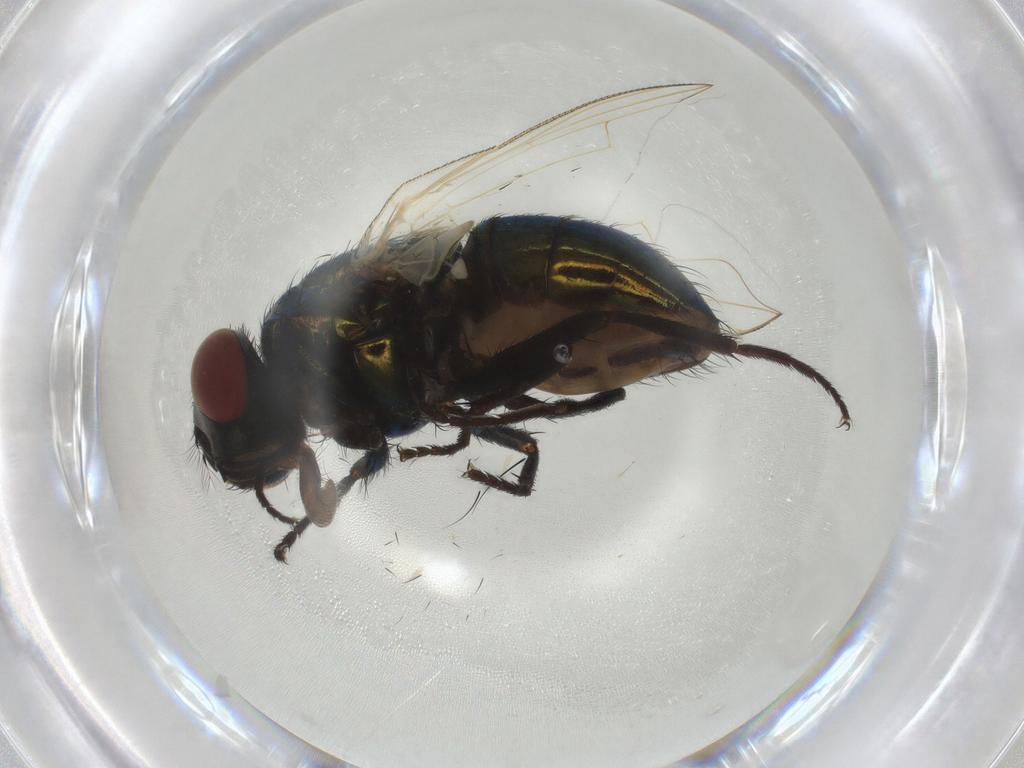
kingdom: Animalia
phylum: Arthropoda
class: Insecta
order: Diptera
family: Muscidae
